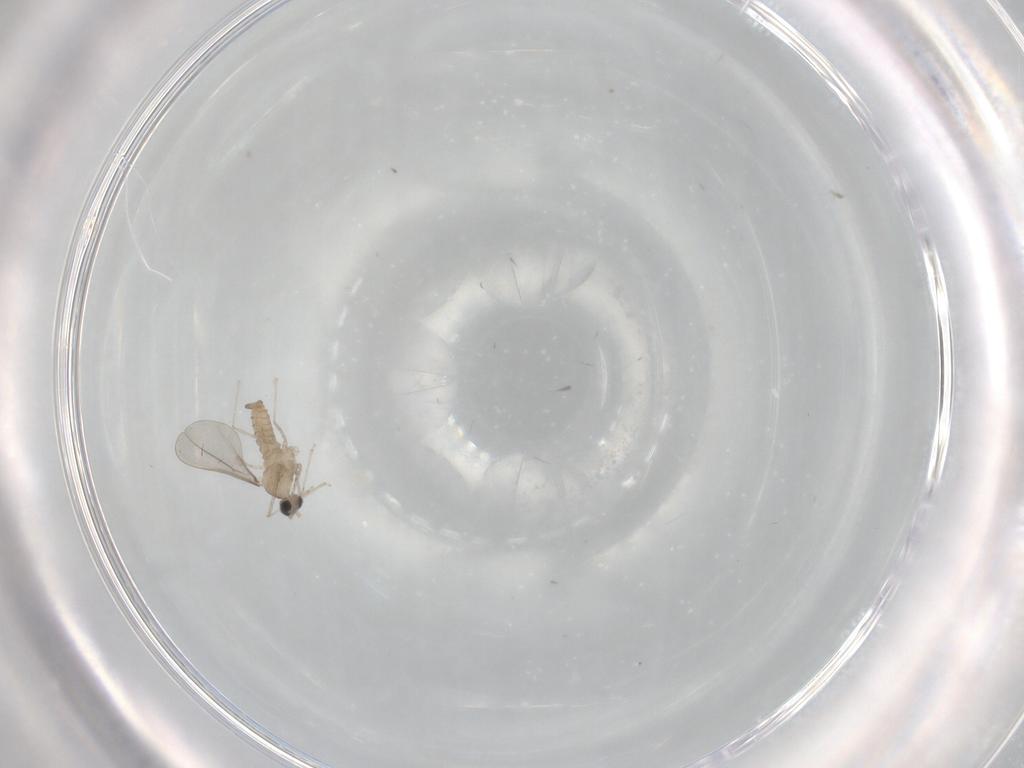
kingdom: Animalia
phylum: Arthropoda
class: Insecta
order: Diptera
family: Cecidomyiidae
